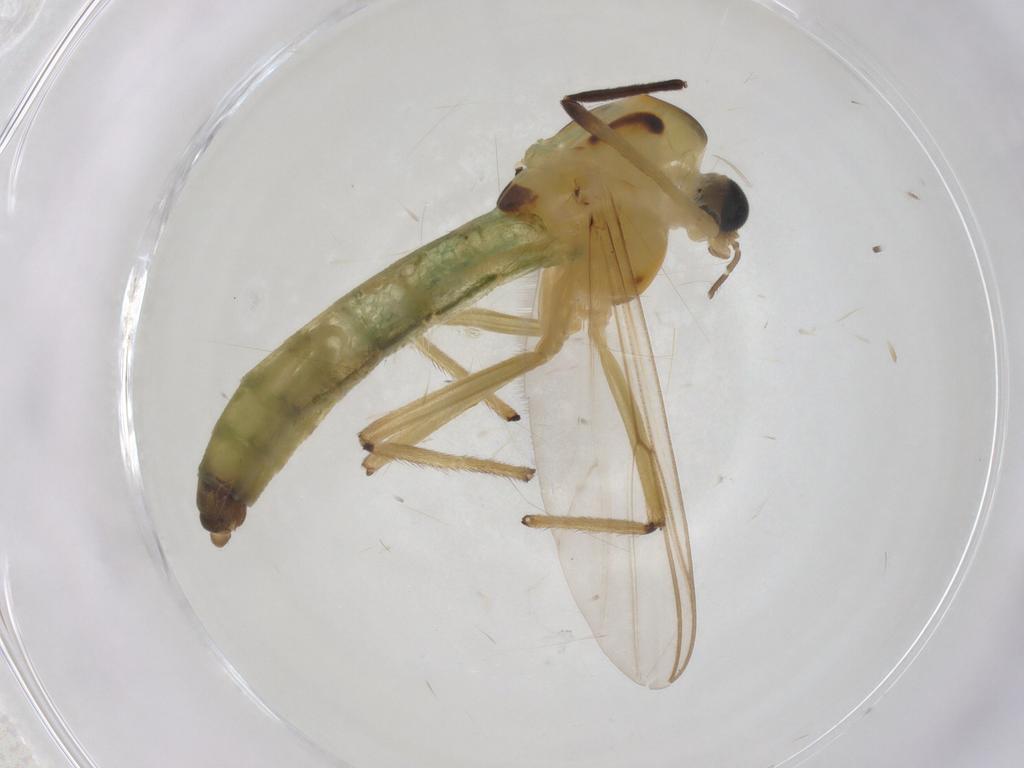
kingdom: Animalia
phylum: Arthropoda
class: Insecta
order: Diptera
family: Chironomidae
